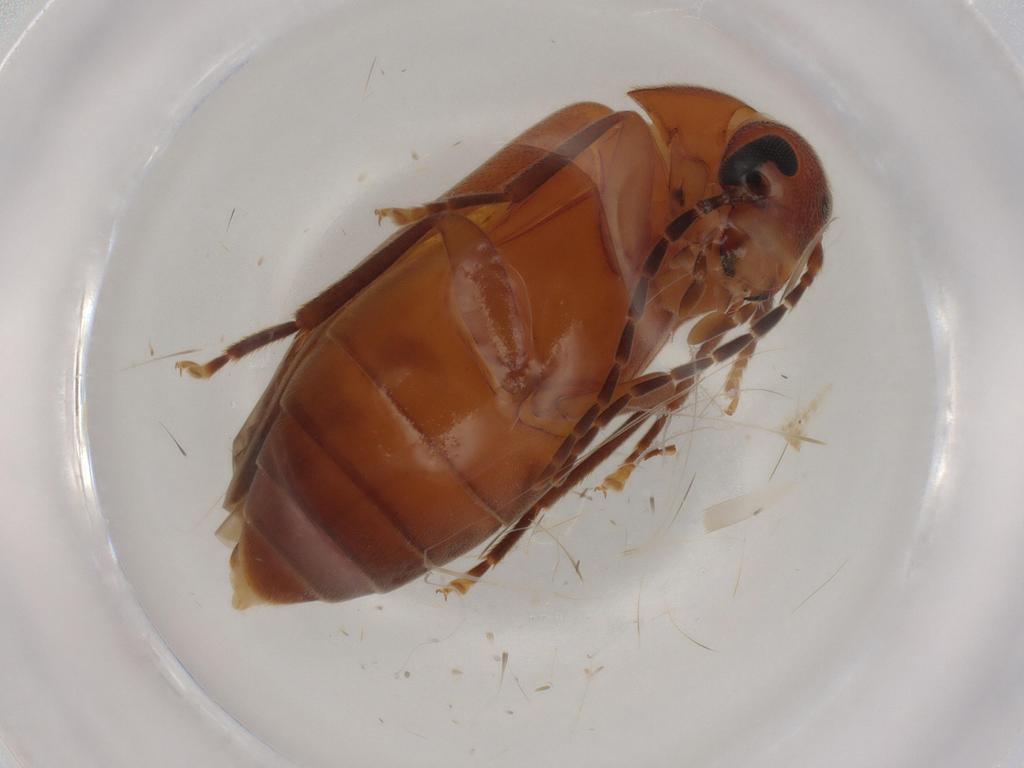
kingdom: Animalia
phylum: Arthropoda
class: Insecta
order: Coleoptera
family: Scraptiidae
